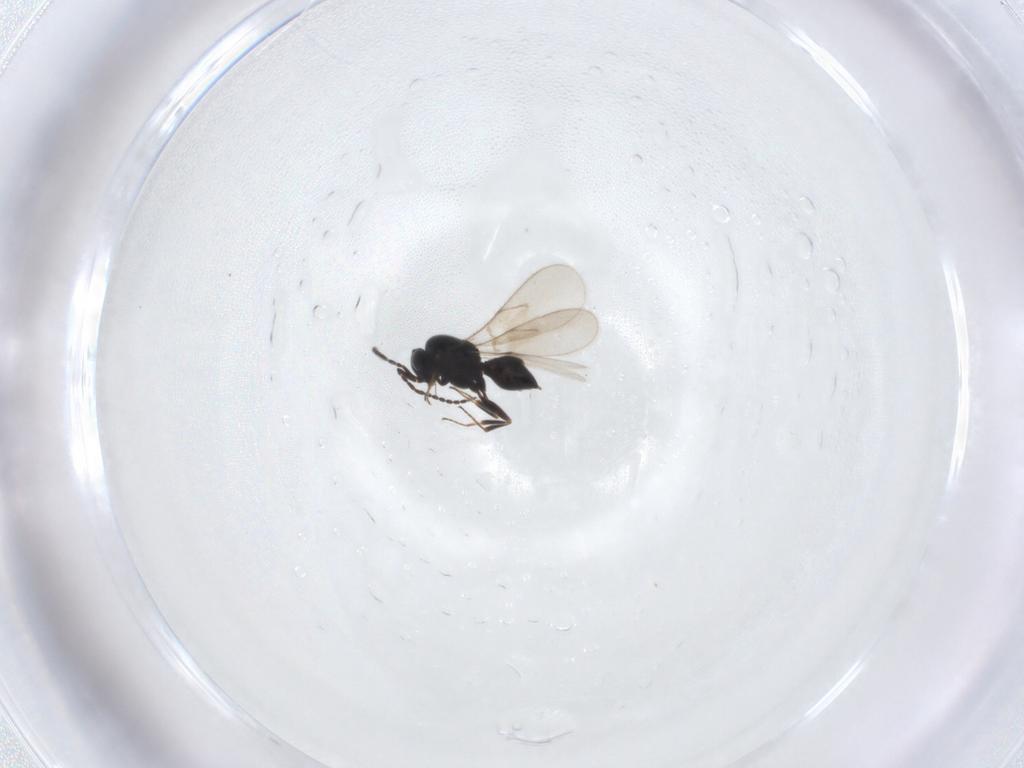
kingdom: Animalia
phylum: Arthropoda
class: Insecta
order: Hymenoptera
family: Scelionidae
